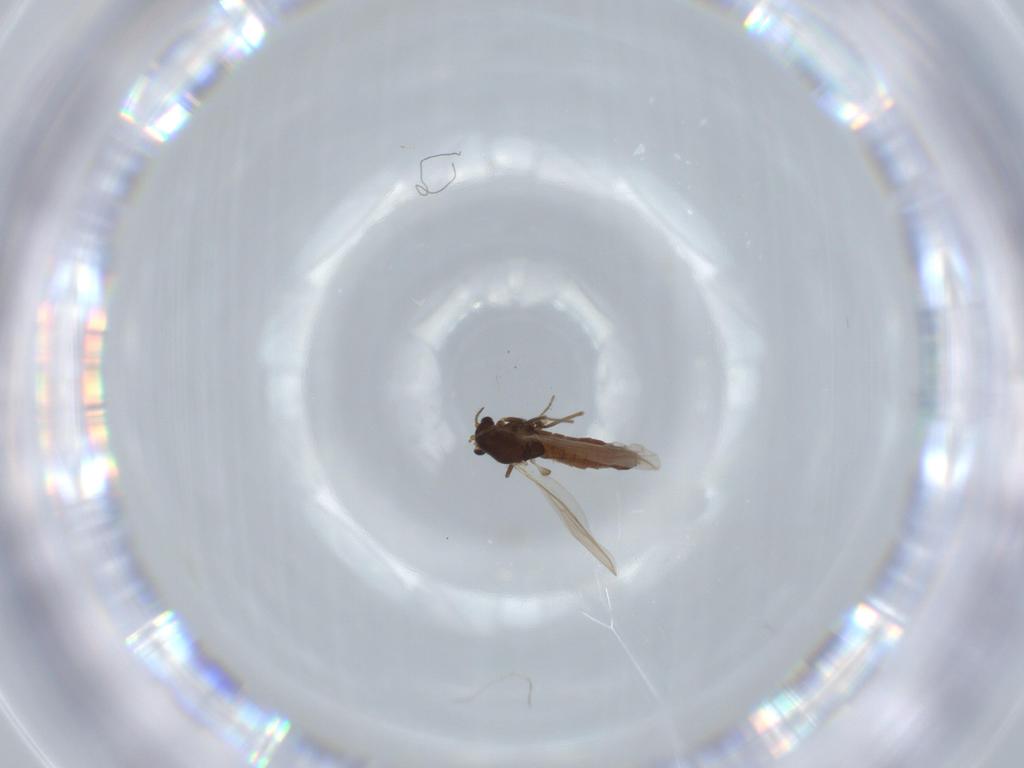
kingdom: Animalia
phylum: Arthropoda
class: Insecta
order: Diptera
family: Chironomidae
